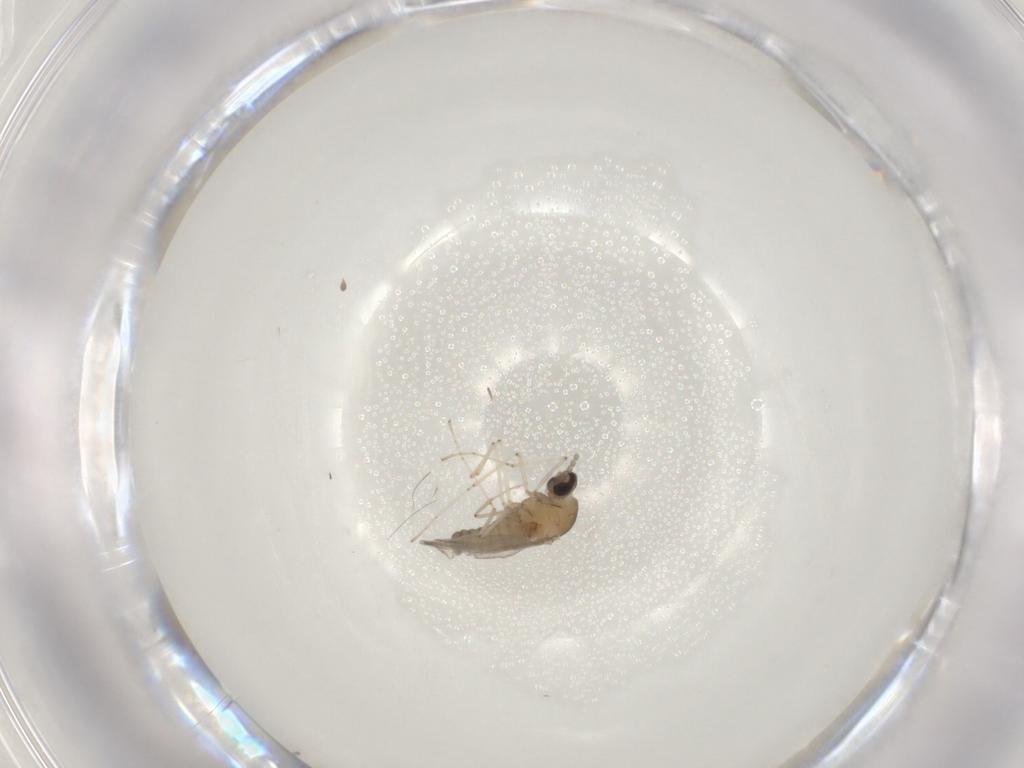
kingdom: Animalia
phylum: Arthropoda
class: Insecta
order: Diptera
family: Cecidomyiidae
